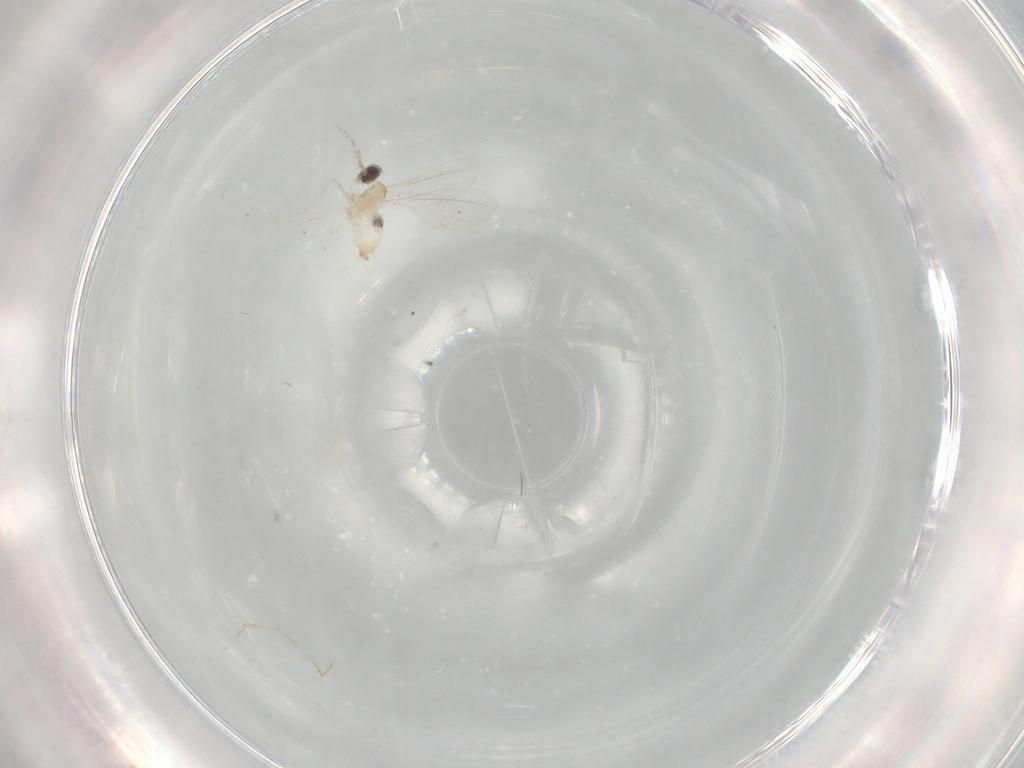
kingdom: Animalia
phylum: Arthropoda
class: Insecta
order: Diptera
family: Cecidomyiidae
